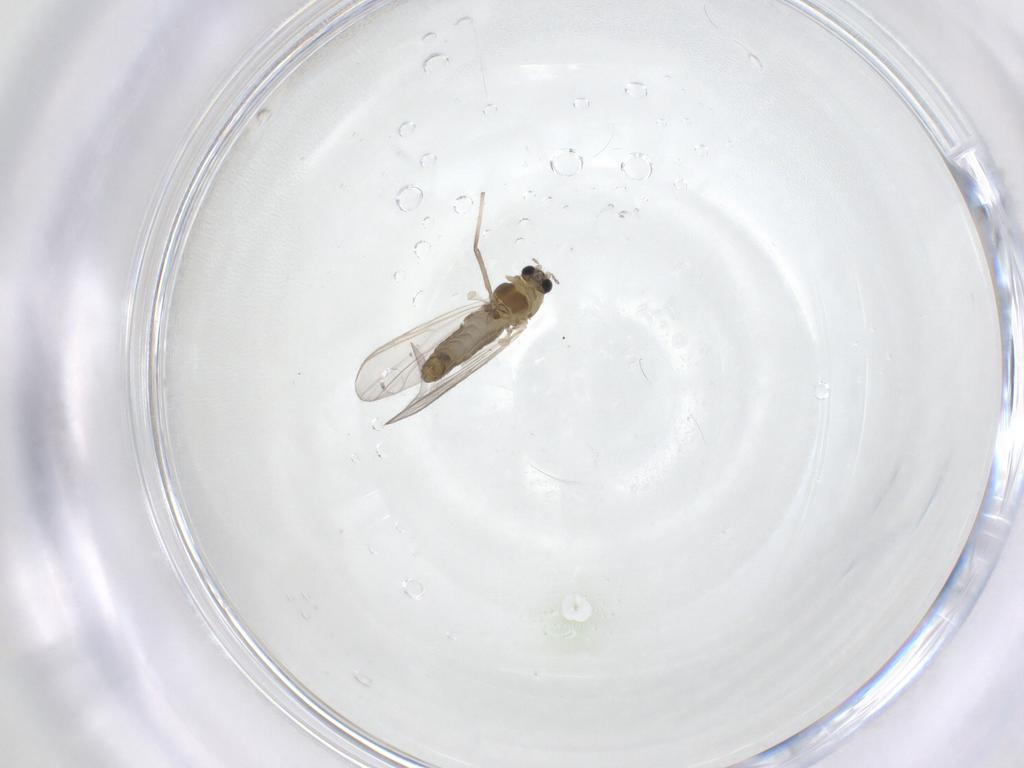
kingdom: Animalia
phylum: Arthropoda
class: Insecta
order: Diptera
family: Chironomidae
